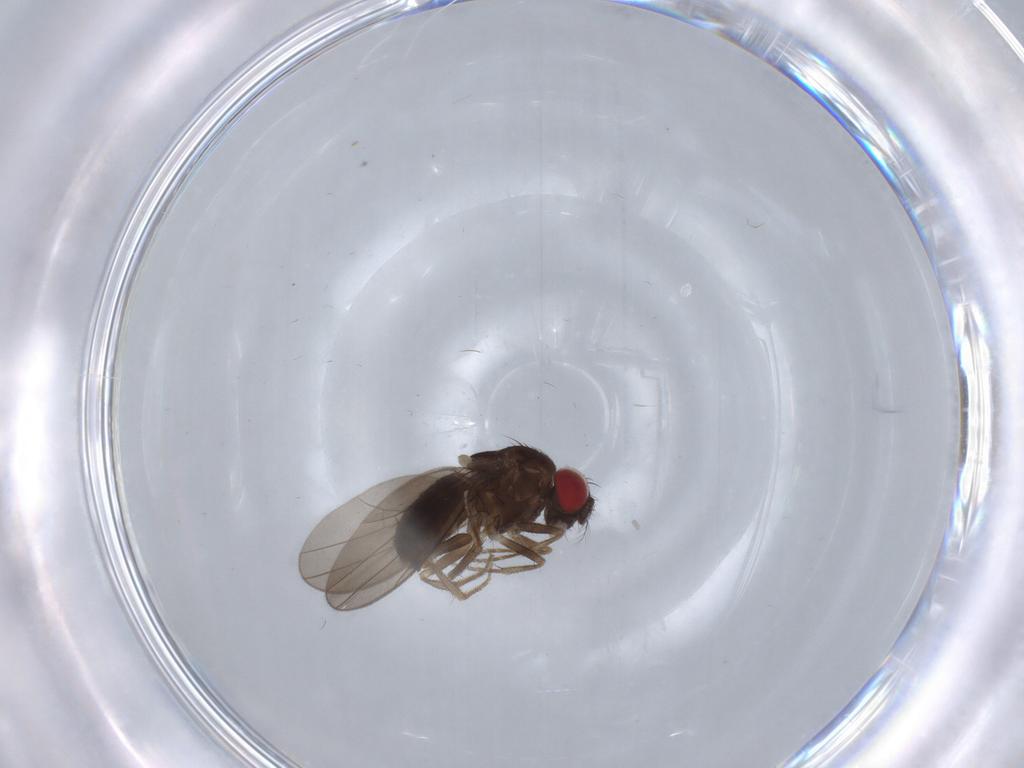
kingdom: Animalia
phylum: Arthropoda
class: Insecta
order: Diptera
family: Drosophilidae
